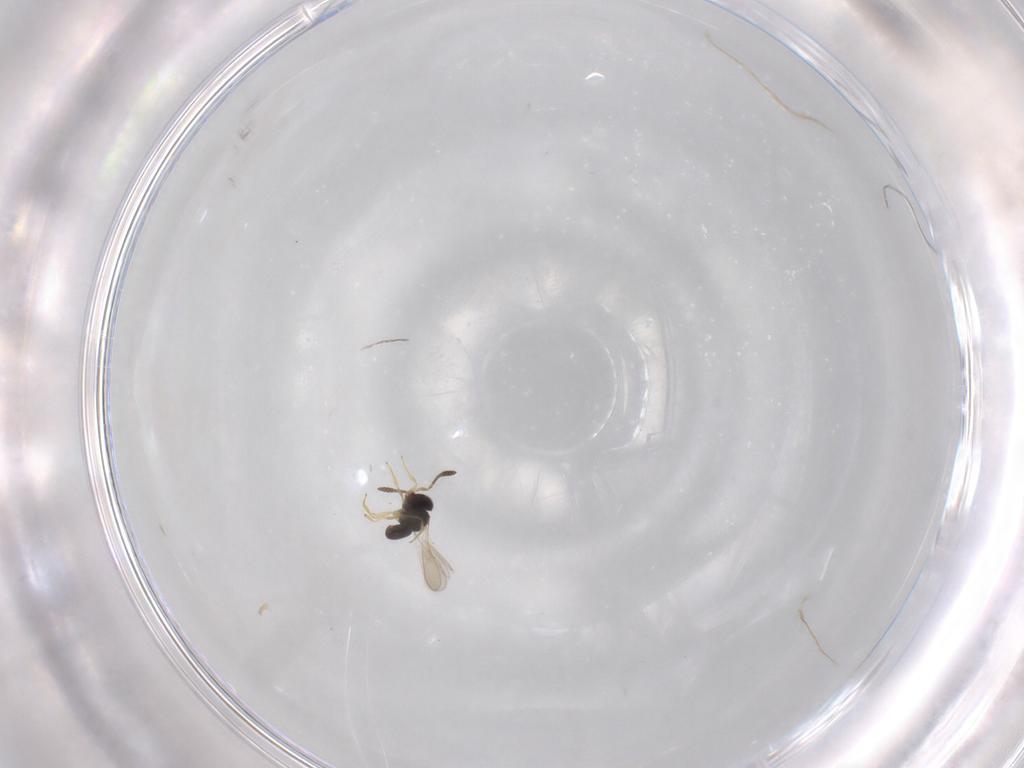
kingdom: Animalia
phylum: Arthropoda
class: Insecta
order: Hymenoptera
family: Scelionidae
